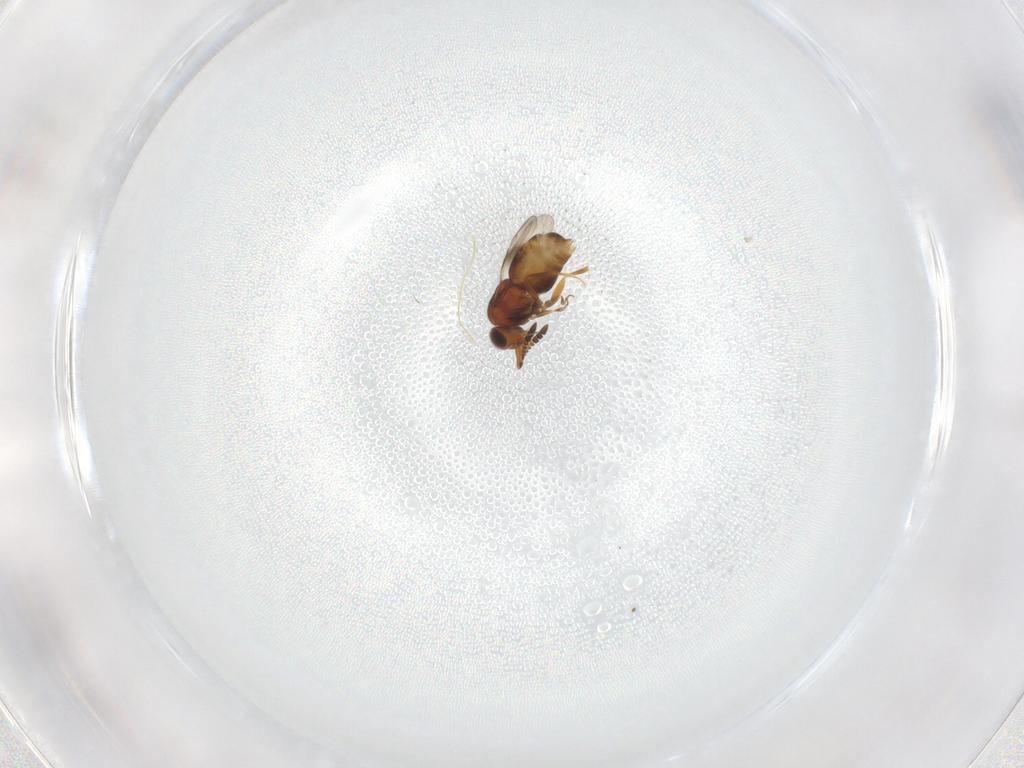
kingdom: Animalia
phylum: Arthropoda
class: Insecta
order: Hymenoptera
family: Ceraphronidae
